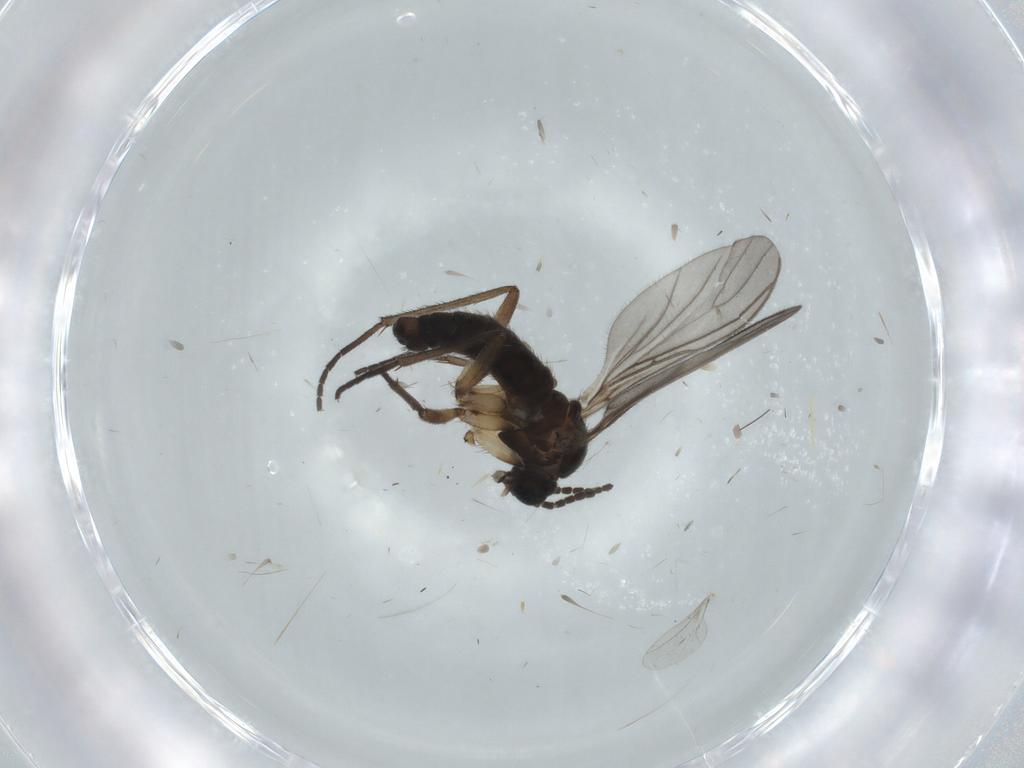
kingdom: Animalia
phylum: Arthropoda
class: Insecta
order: Diptera
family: Sciaridae
